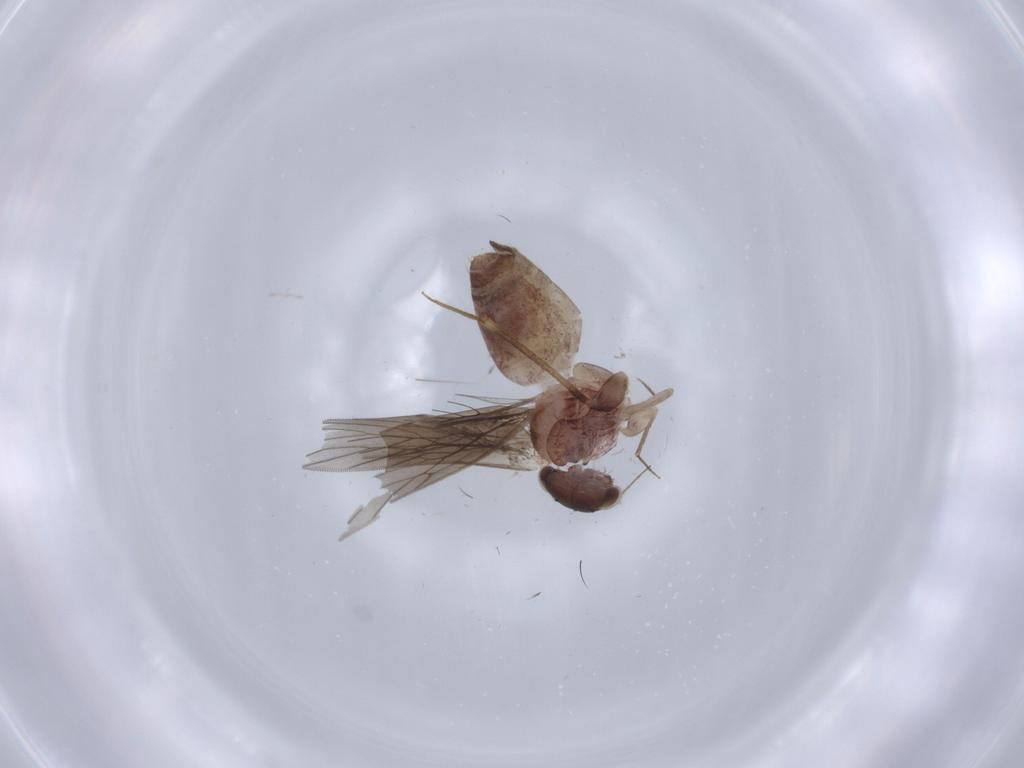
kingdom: Animalia
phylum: Arthropoda
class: Insecta
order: Psocodea
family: Lepidopsocidae
